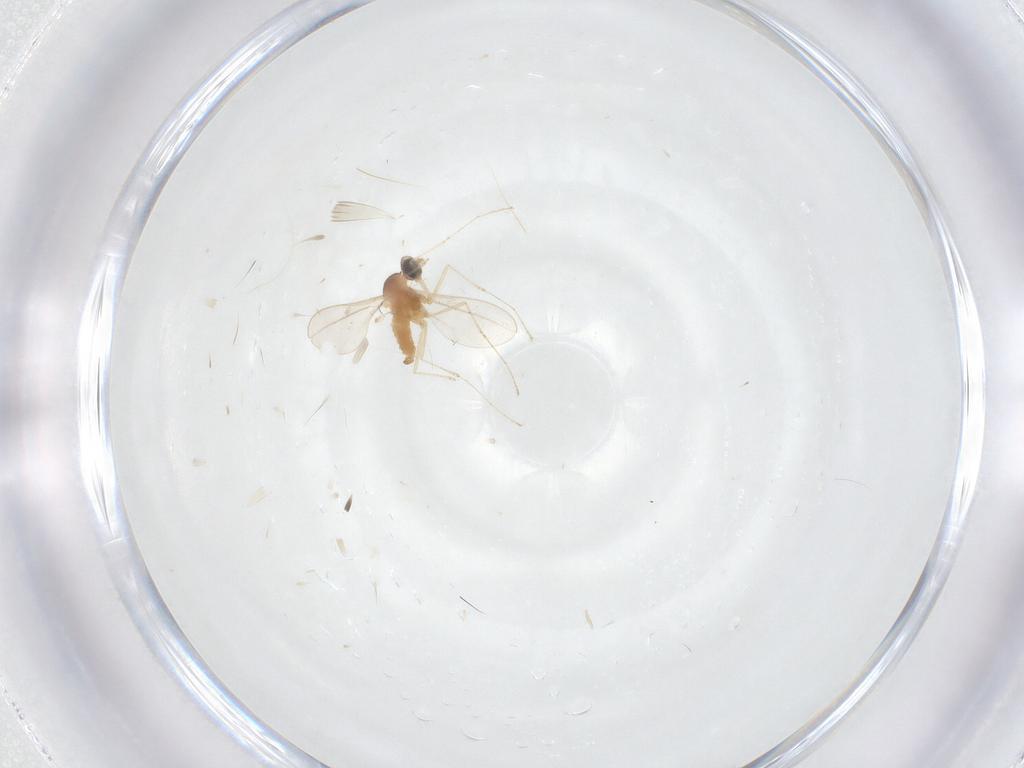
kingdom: Animalia
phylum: Arthropoda
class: Insecta
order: Diptera
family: Cecidomyiidae
